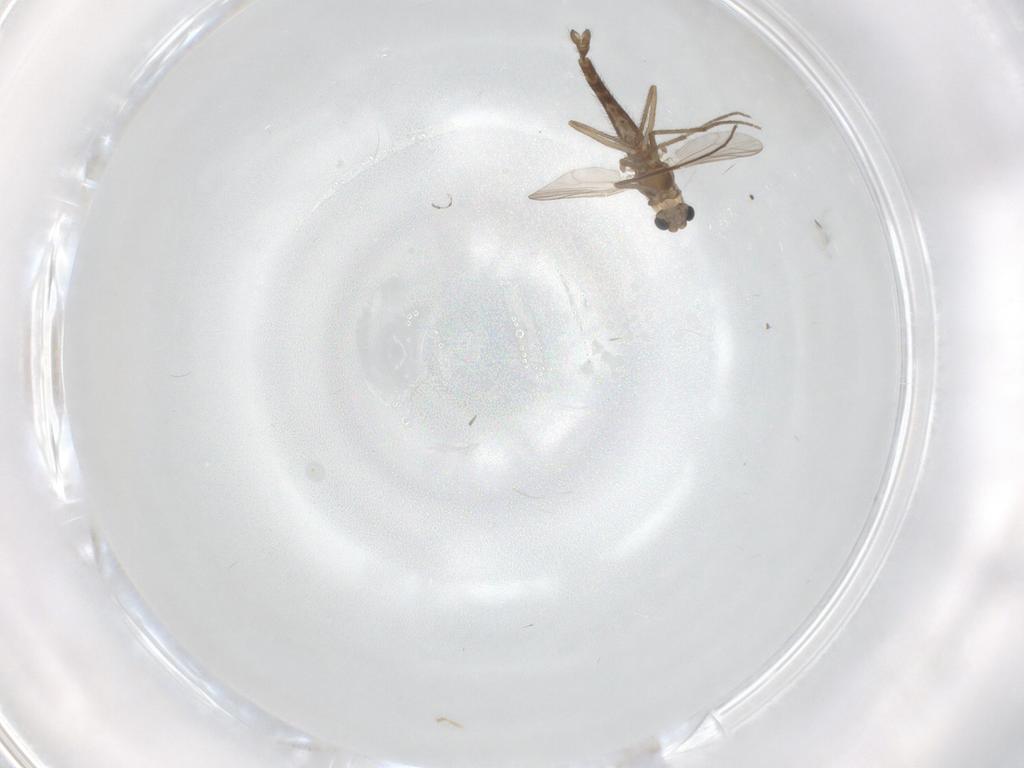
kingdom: Animalia
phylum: Arthropoda
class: Insecta
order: Diptera
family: Chironomidae
